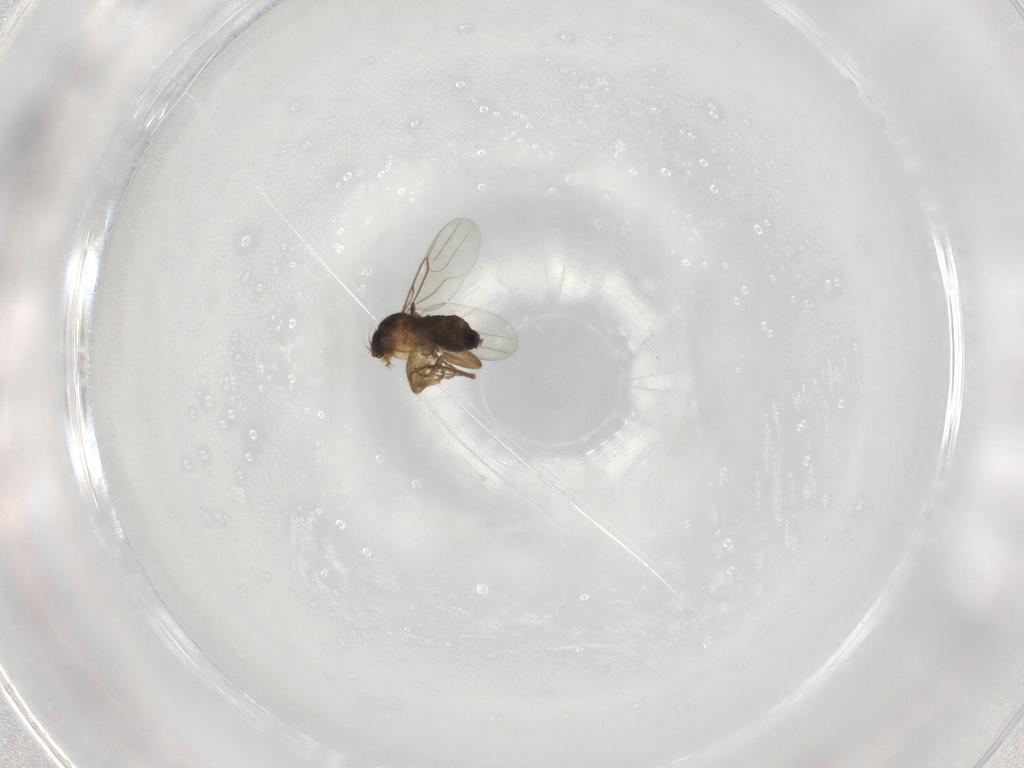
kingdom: Animalia
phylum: Arthropoda
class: Insecta
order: Diptera
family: Phoridae
